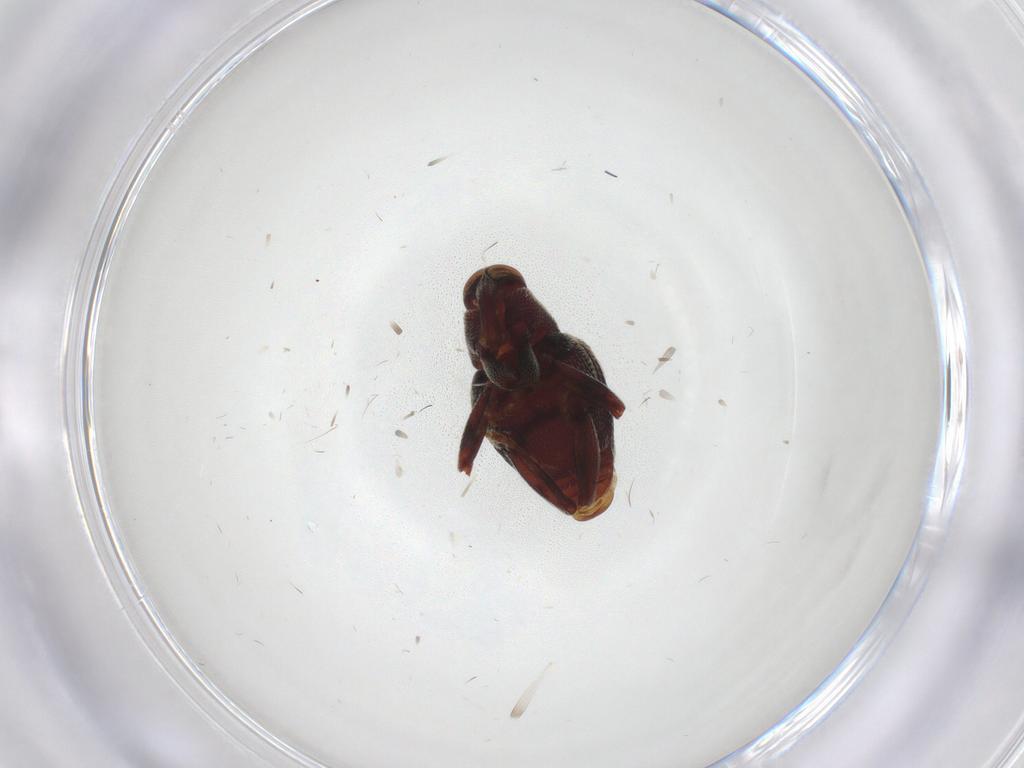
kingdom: Animalia
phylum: Arthropoda
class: Insecta
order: Coleoptera
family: Curculionidae
